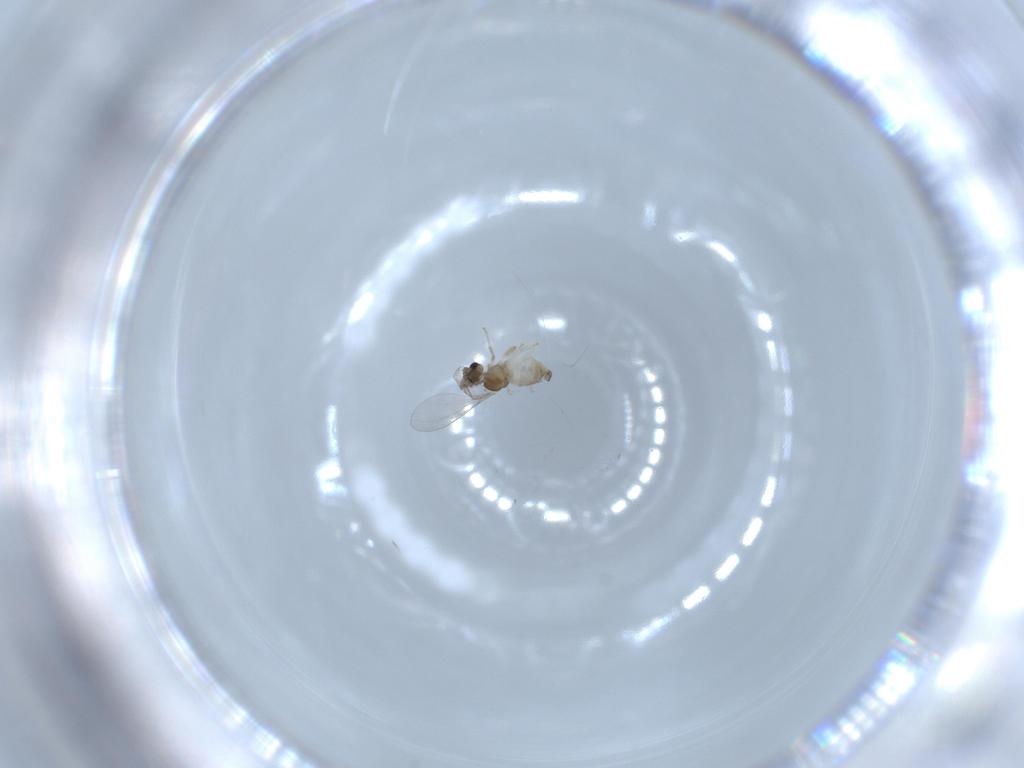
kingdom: Animalia
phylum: Arthropoda
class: Insecta
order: Diptera
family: Cecidomyiidae
